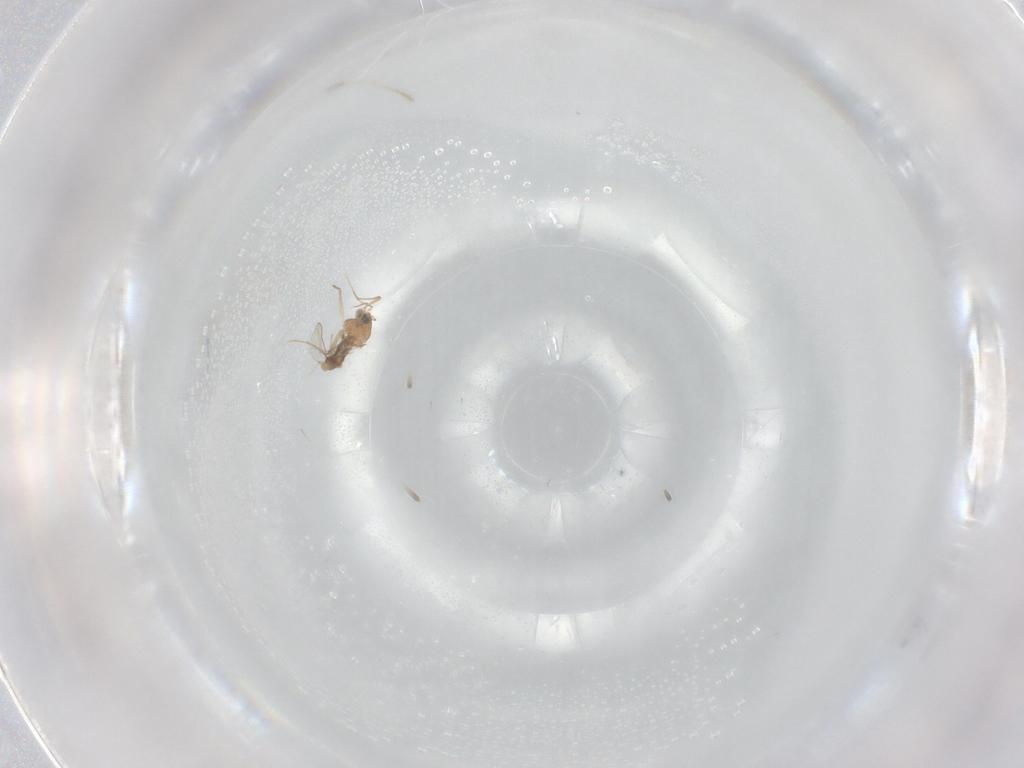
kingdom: Animalia
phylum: Arthropoda
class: Insecta
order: Diptera
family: Chironomidae
